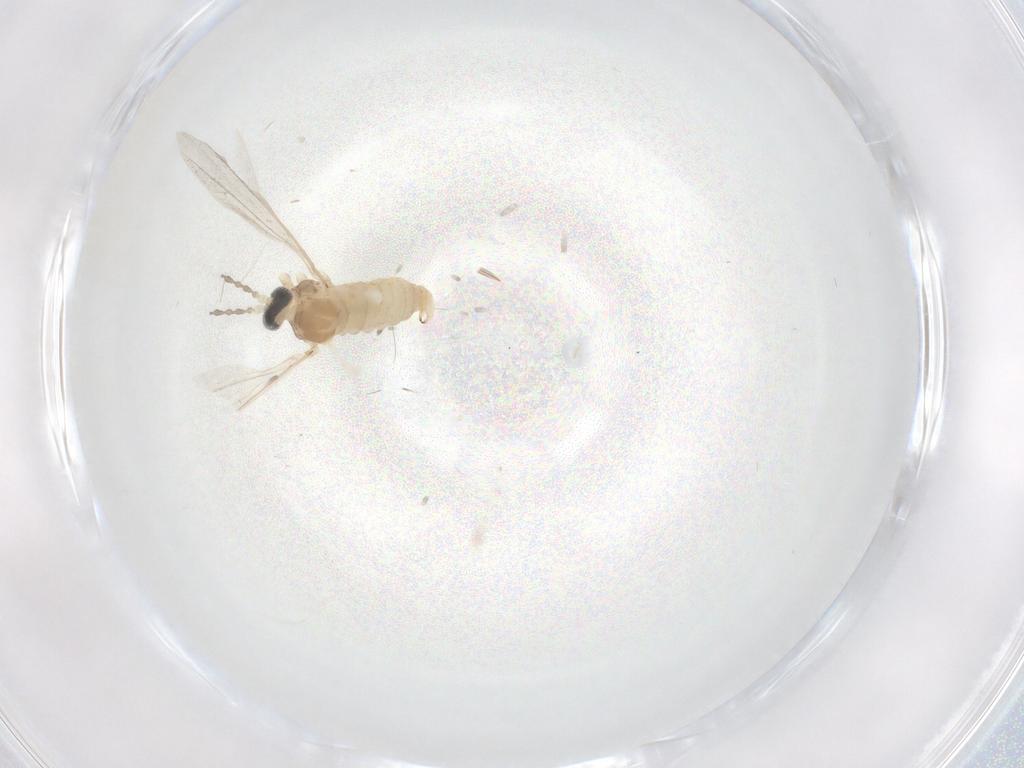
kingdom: Animalia
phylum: Arthropoda
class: Insecta
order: Diptera
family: Cecidomyiidae
